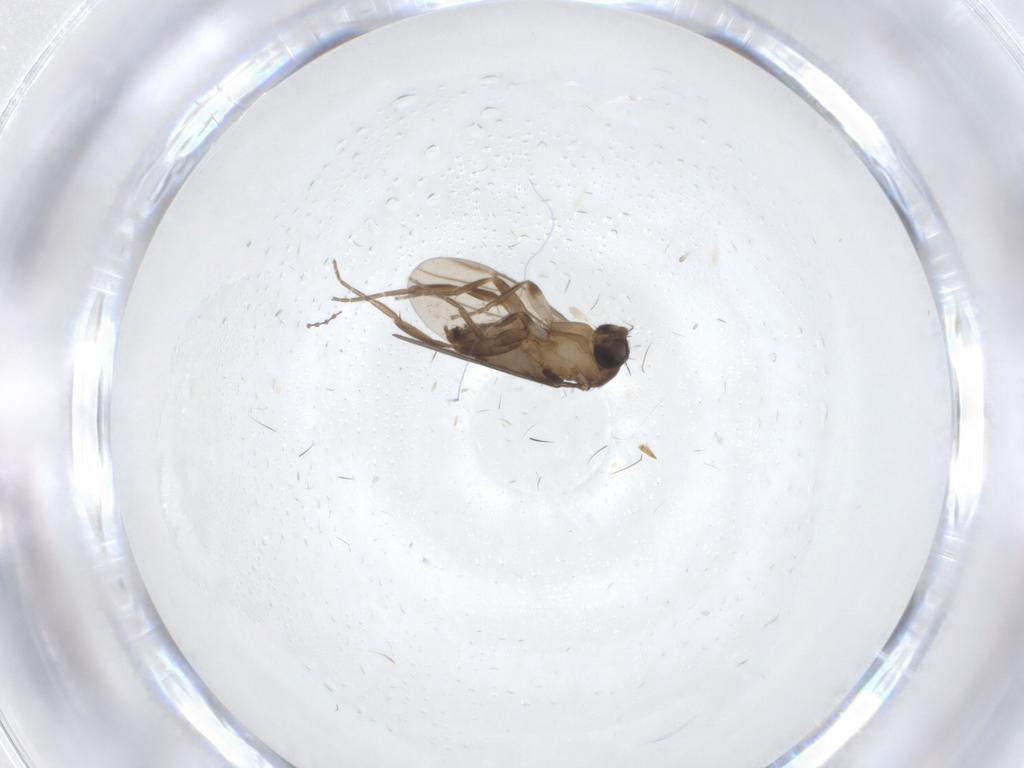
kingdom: Animalia
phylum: Arthropoda
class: Insecta
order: Diptera
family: Cecidomyiidae
